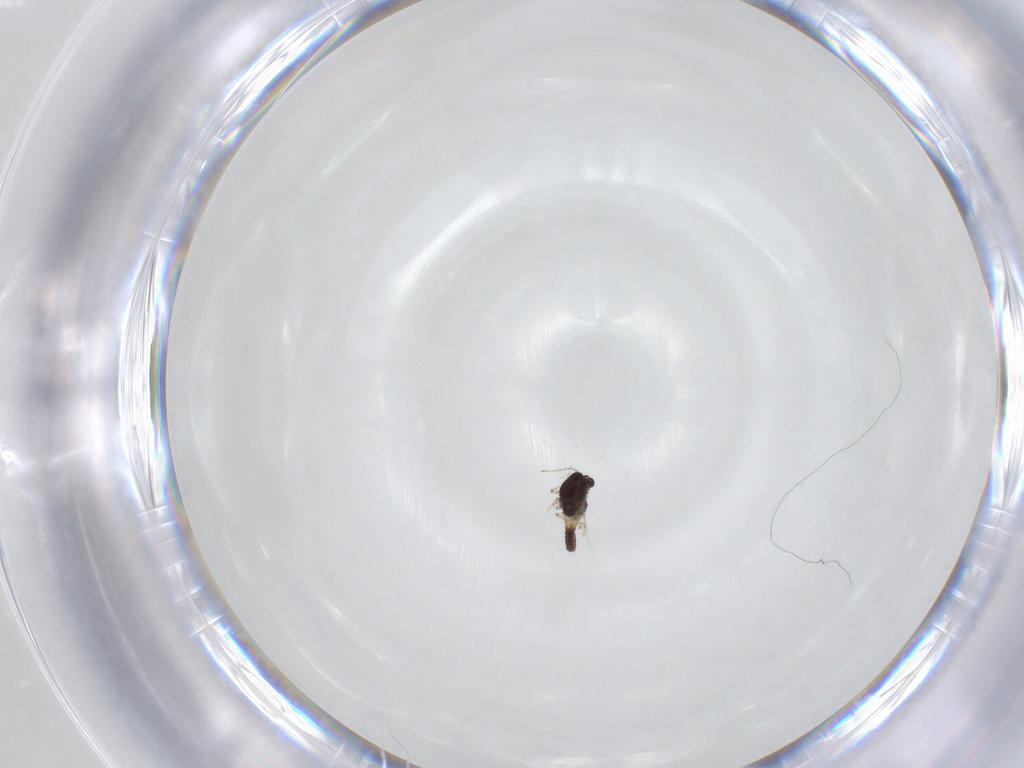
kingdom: Animalia
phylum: Arthropoda
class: Insecta
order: Diptera
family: Chironomidae
